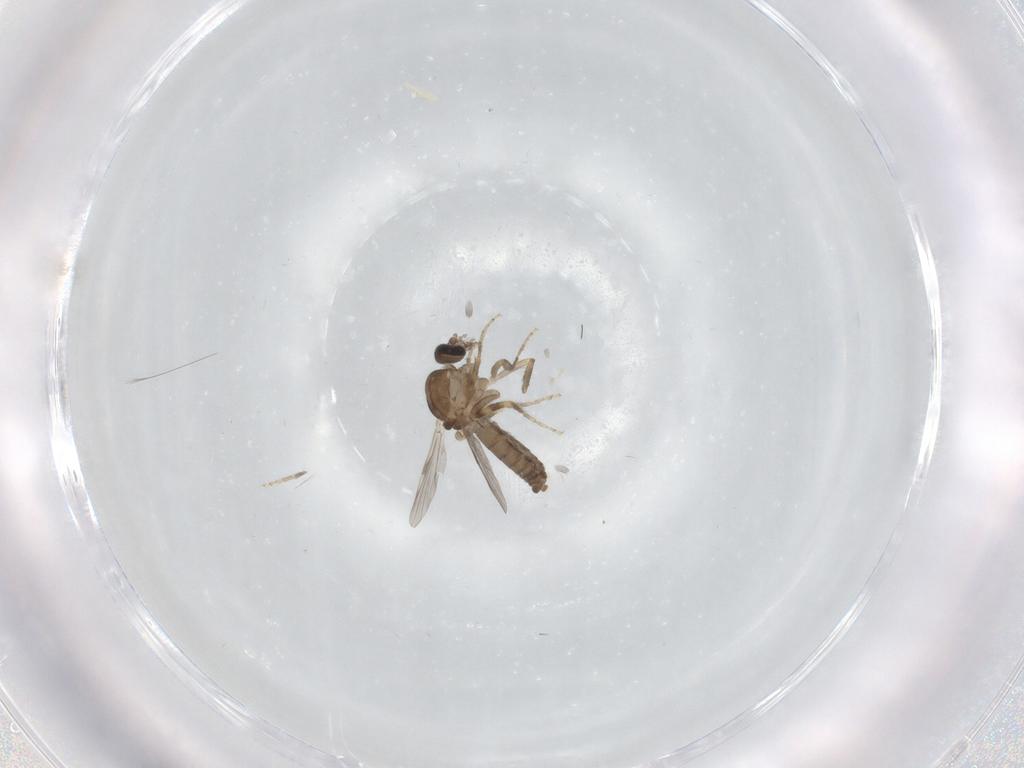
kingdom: Animalia
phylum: Arthropoda
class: Insecta
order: Diptera
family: Ceratopogonidae
